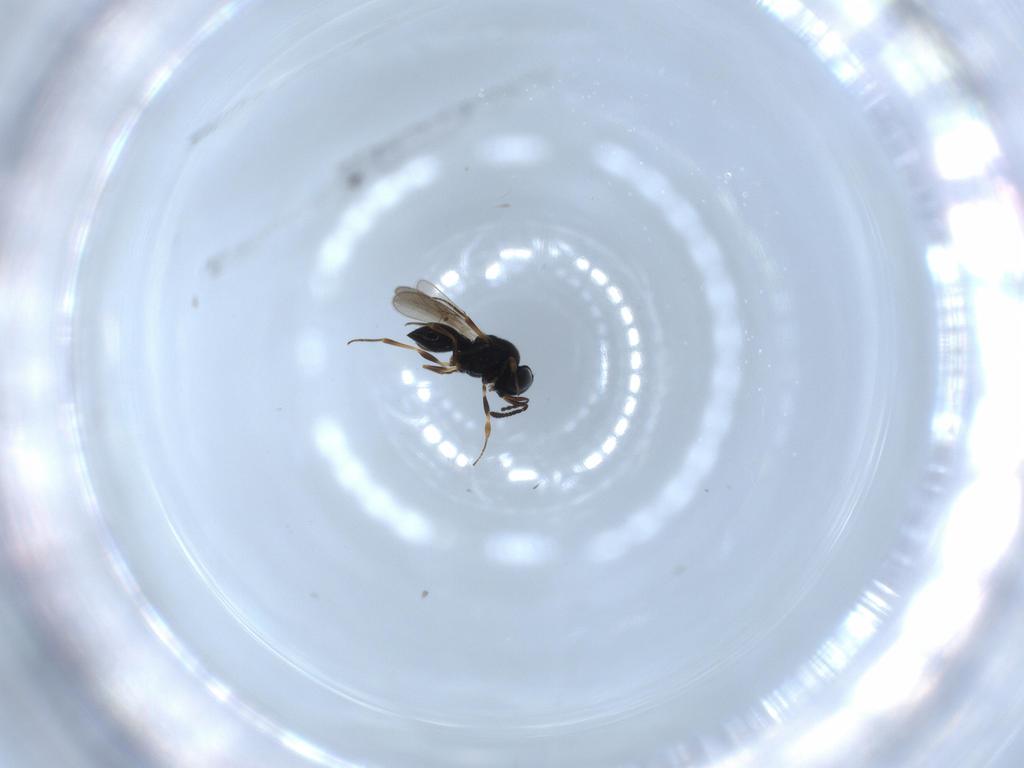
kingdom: Animalia
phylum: Arthropoda
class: Insecta
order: Hymenoptera
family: Scelionidae
